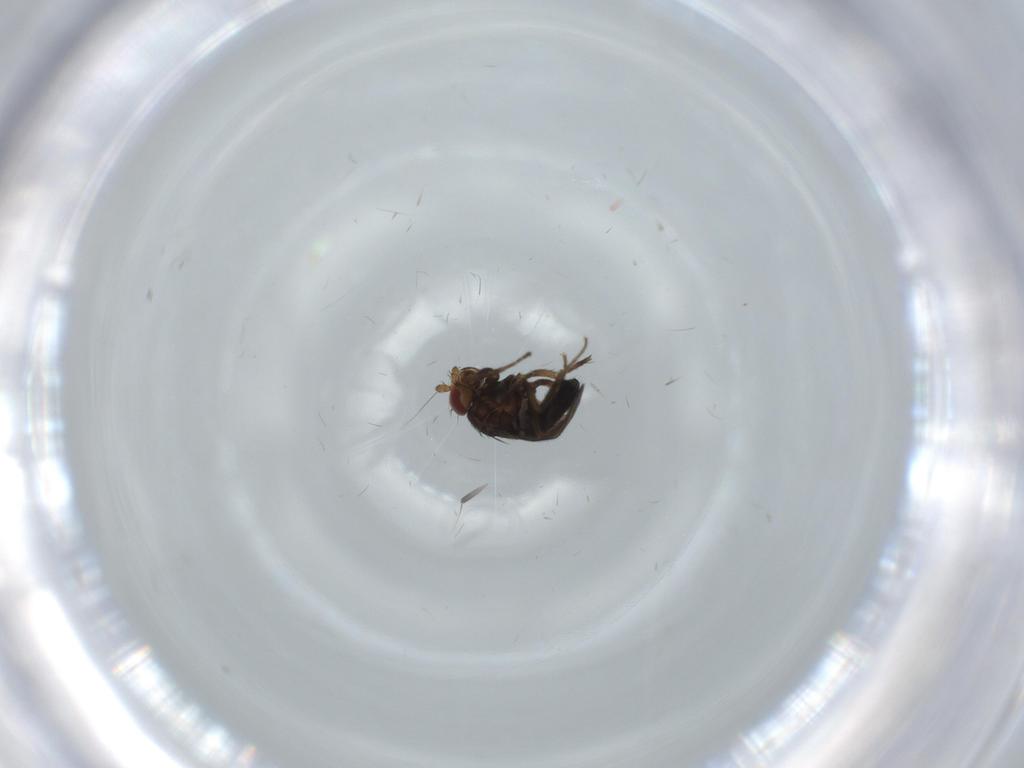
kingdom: Animalia
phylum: Arthropoda
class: Insecta
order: Diptera
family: Sphaeroceridae
